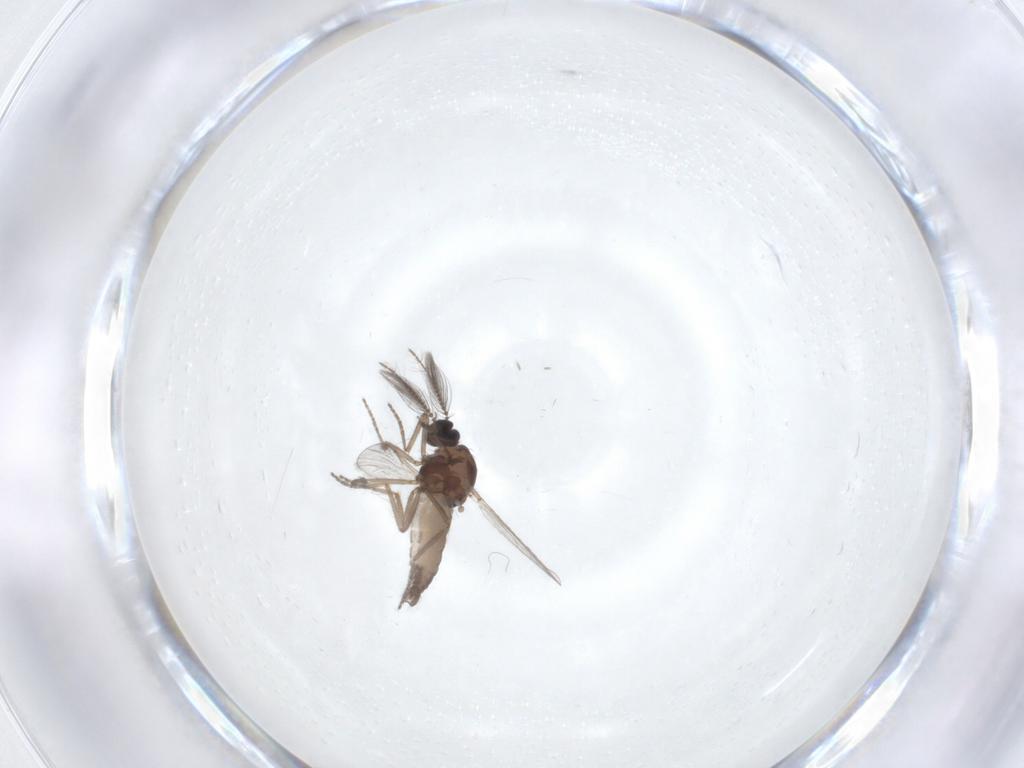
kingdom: Animalia
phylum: Arthropoda
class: Insecta
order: Diptera
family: Ceratopogonidae
